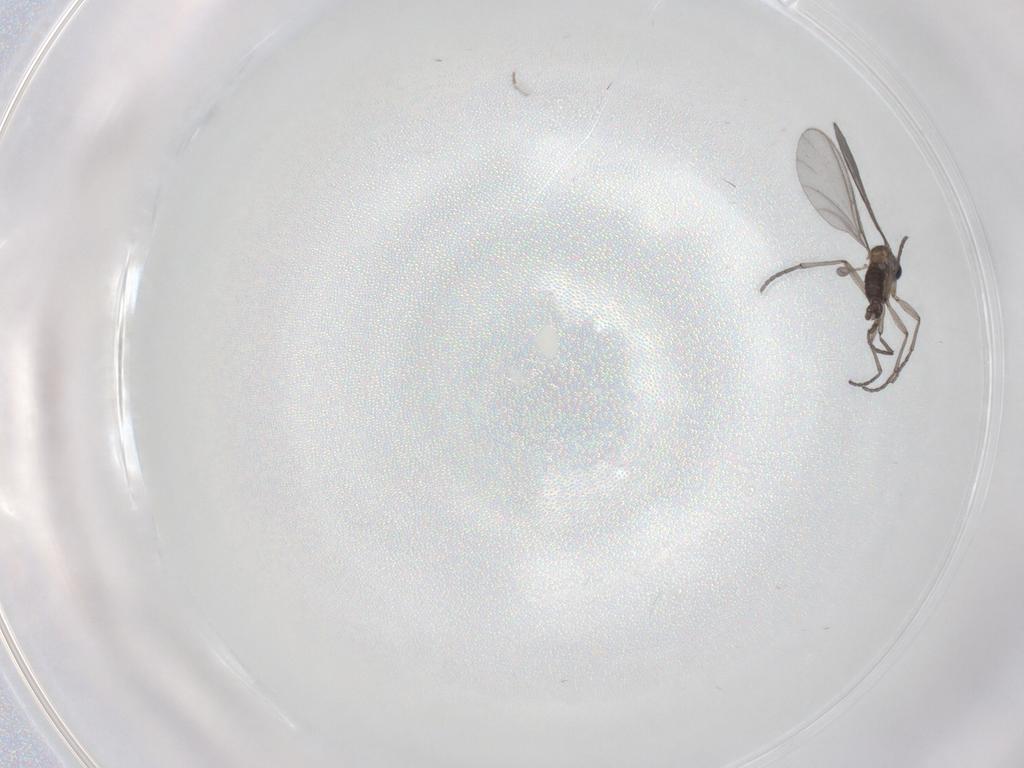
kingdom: Animalia
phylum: Arthropoda
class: Insecta
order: Diptera
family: Sciaridae
